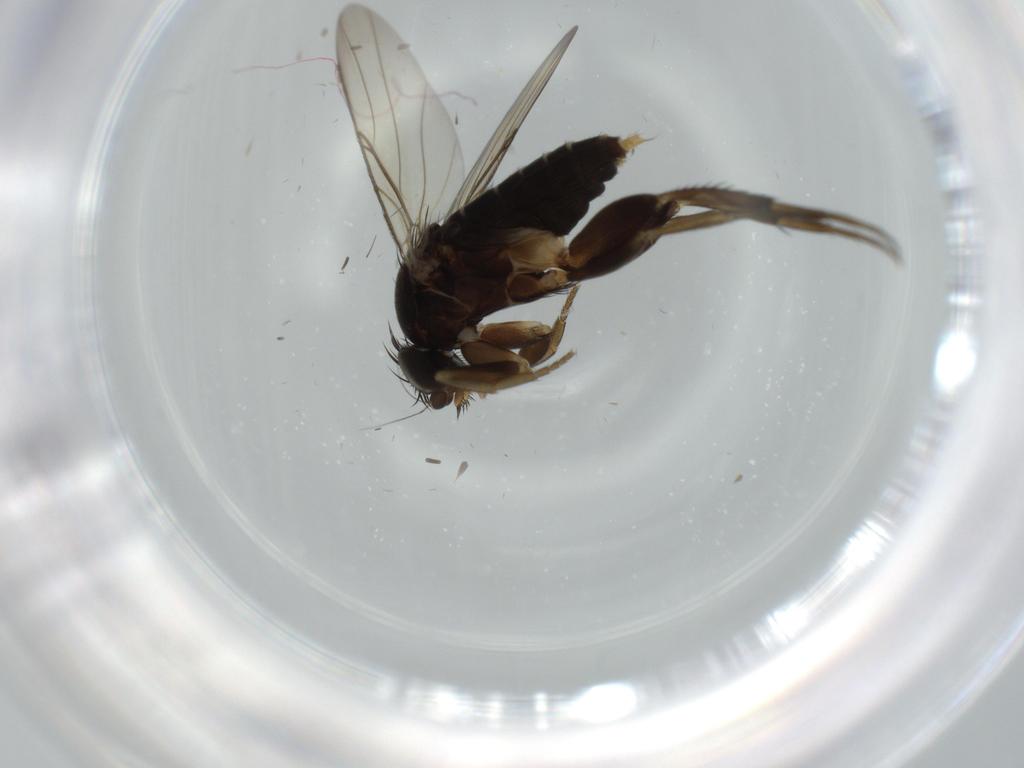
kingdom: Animalia
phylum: Arthropoda
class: Insecta
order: Diptera
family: Phoridae
